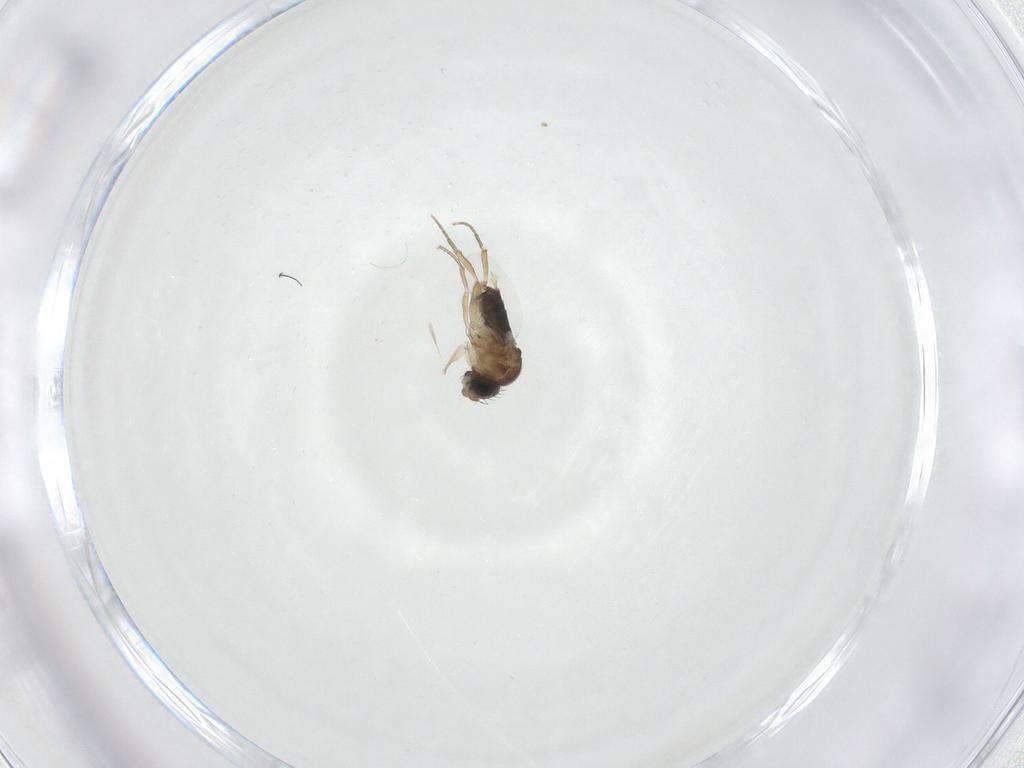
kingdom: Animalia
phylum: Arthropoda
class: Insecta
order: Diptera
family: Phoridae
